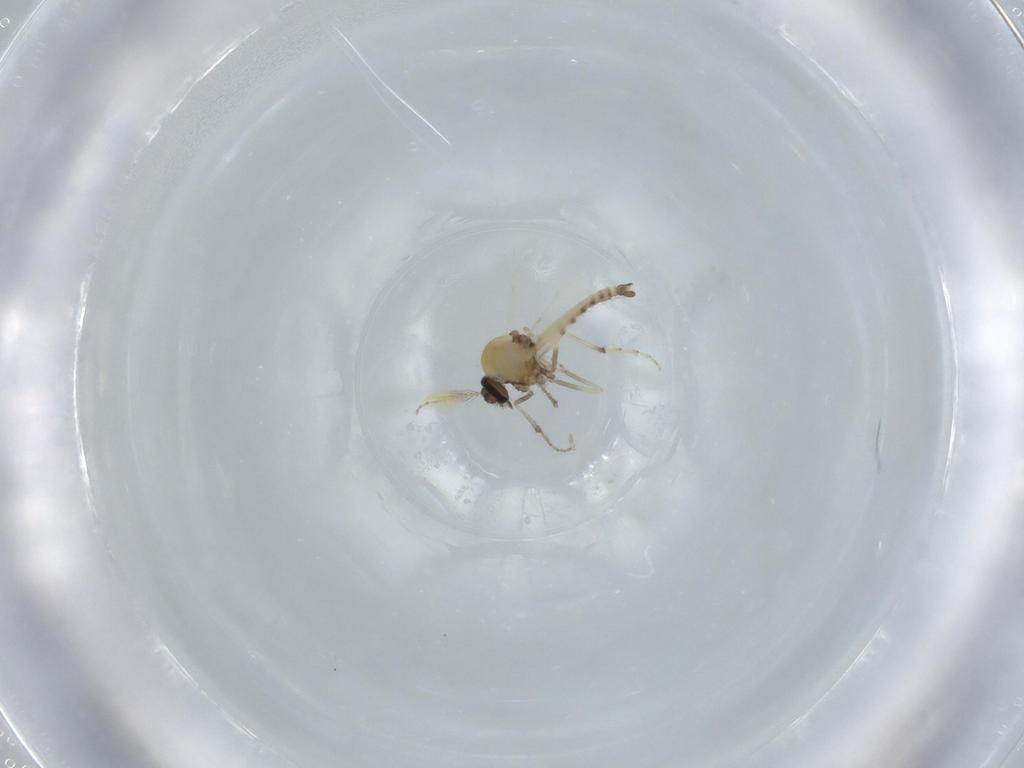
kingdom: Animalia
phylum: Arthropoda
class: Insecta
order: Diptera
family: Ceratopogonidae
